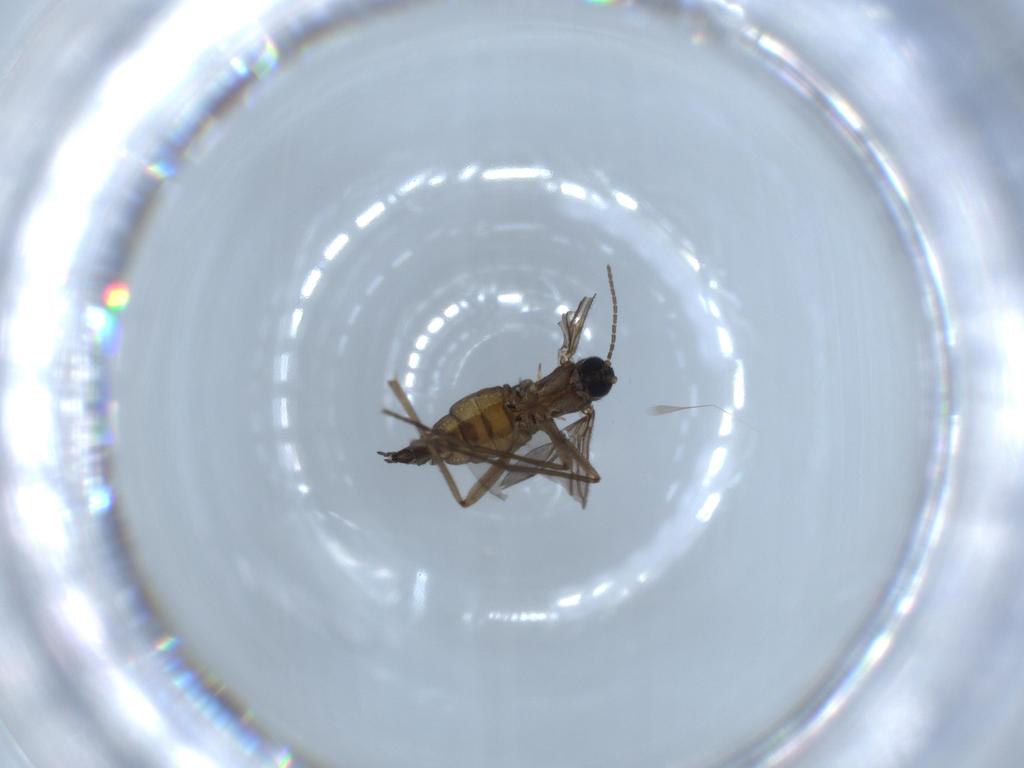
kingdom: Animalia
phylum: Arthropoda
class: Insecta
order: Diptera
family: Sciaridae
